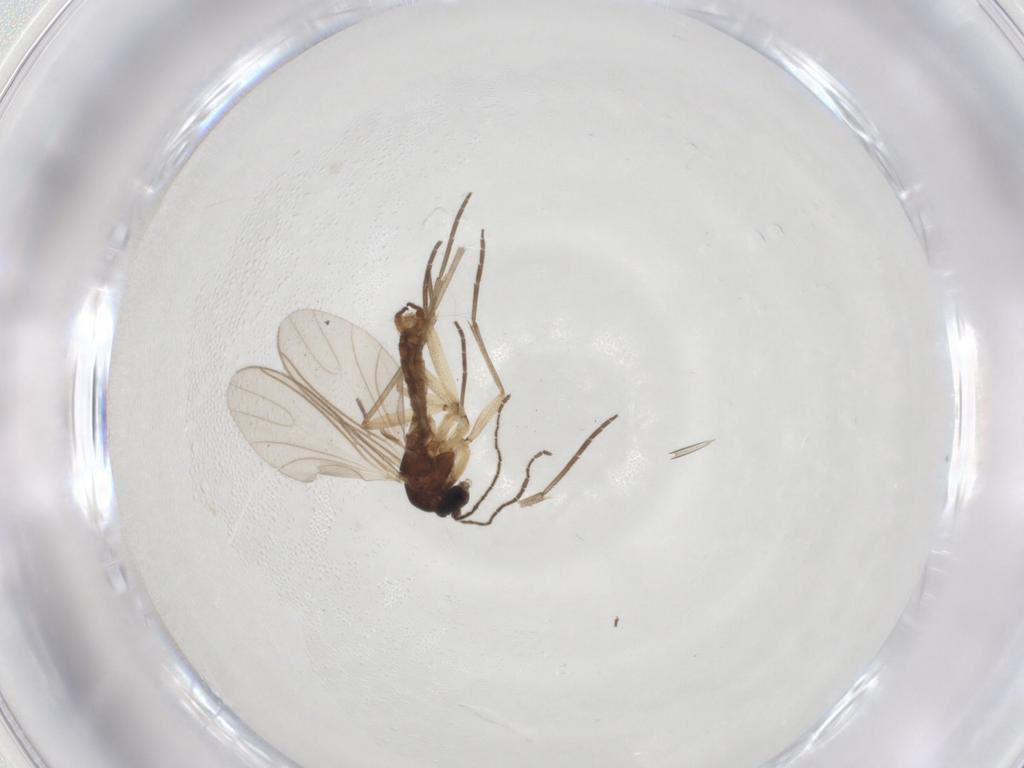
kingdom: Animalia
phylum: Arthropoda
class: Insecta
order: Diptera
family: Sciaridae
